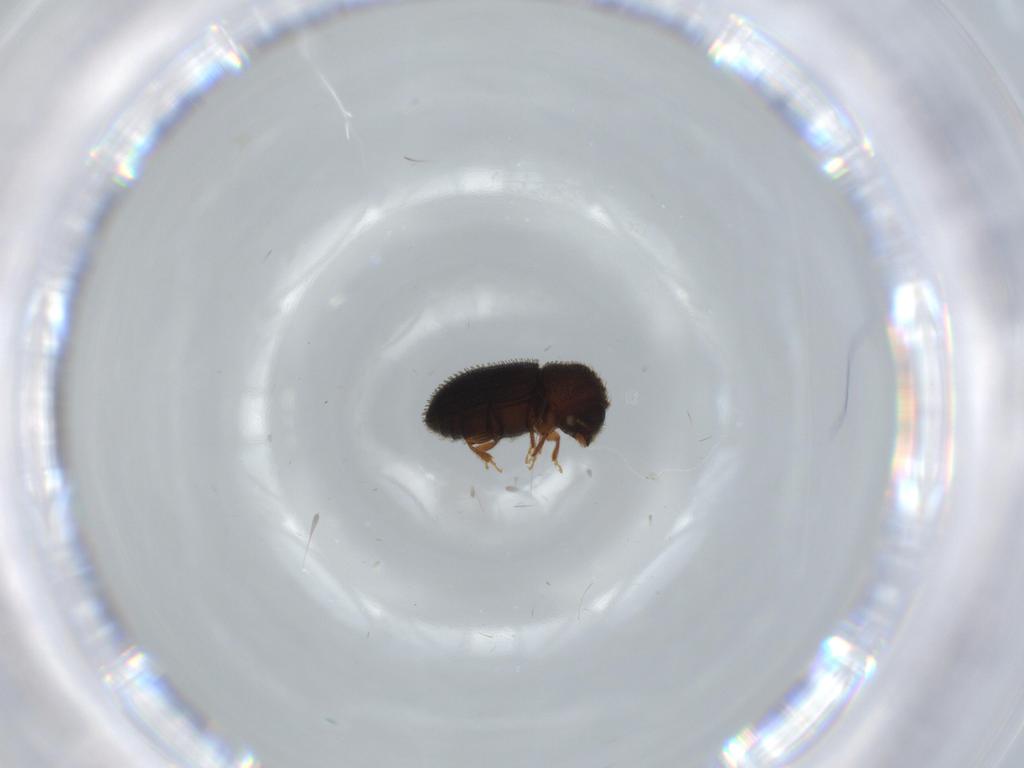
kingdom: Animalia
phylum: Arthropoda
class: Insecta
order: Coleoptera
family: Curculionidae
